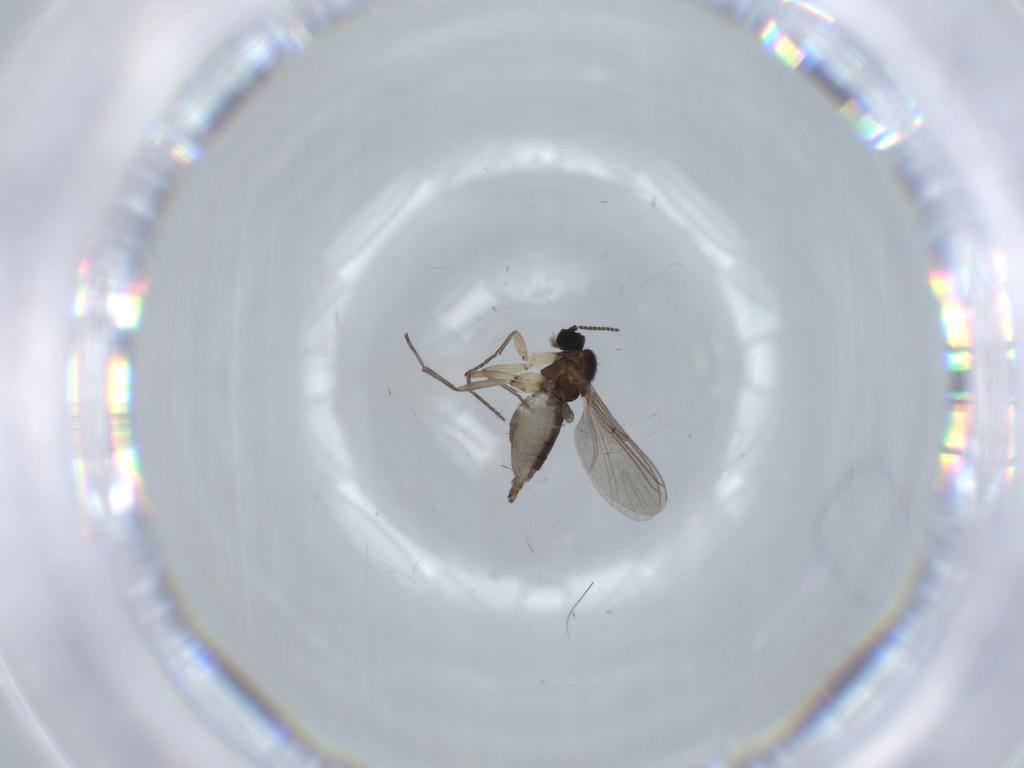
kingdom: Animalia
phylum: Arthropoda
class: Insecta
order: Diptera
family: Sciaridae
